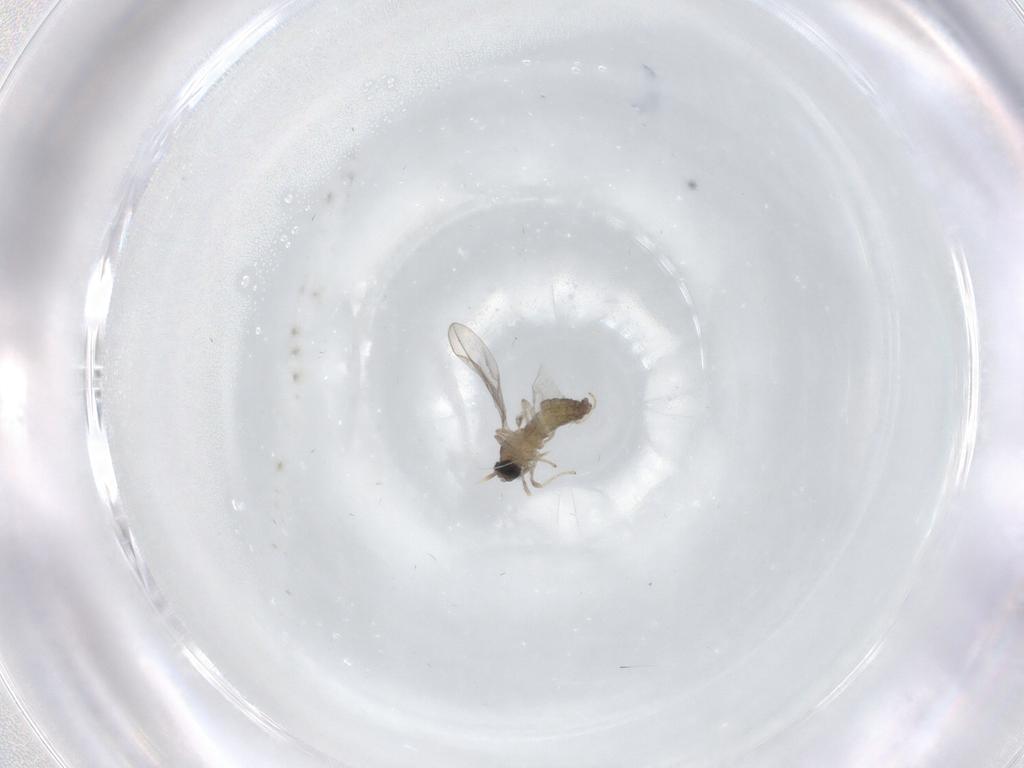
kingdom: Animalia
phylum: Arthropoda
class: Insecta
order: Diptera
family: Cecidomyiidae
